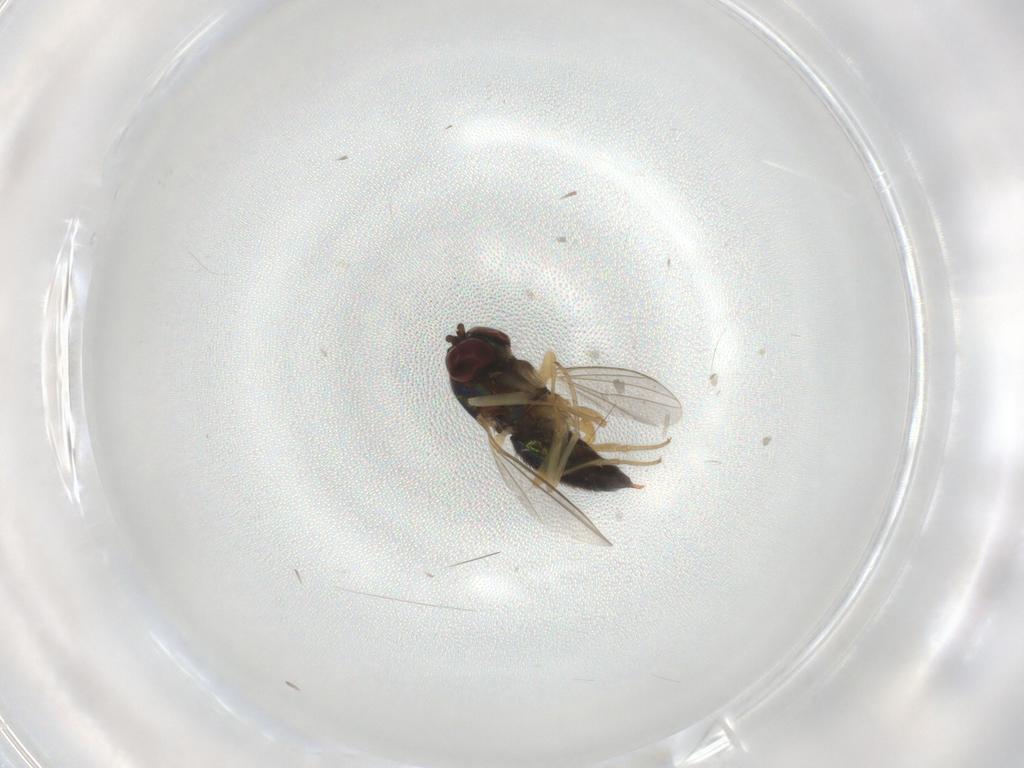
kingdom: Animalia
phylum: Arthropoda
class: Insecta
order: Diptera
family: Dolichopodidae
